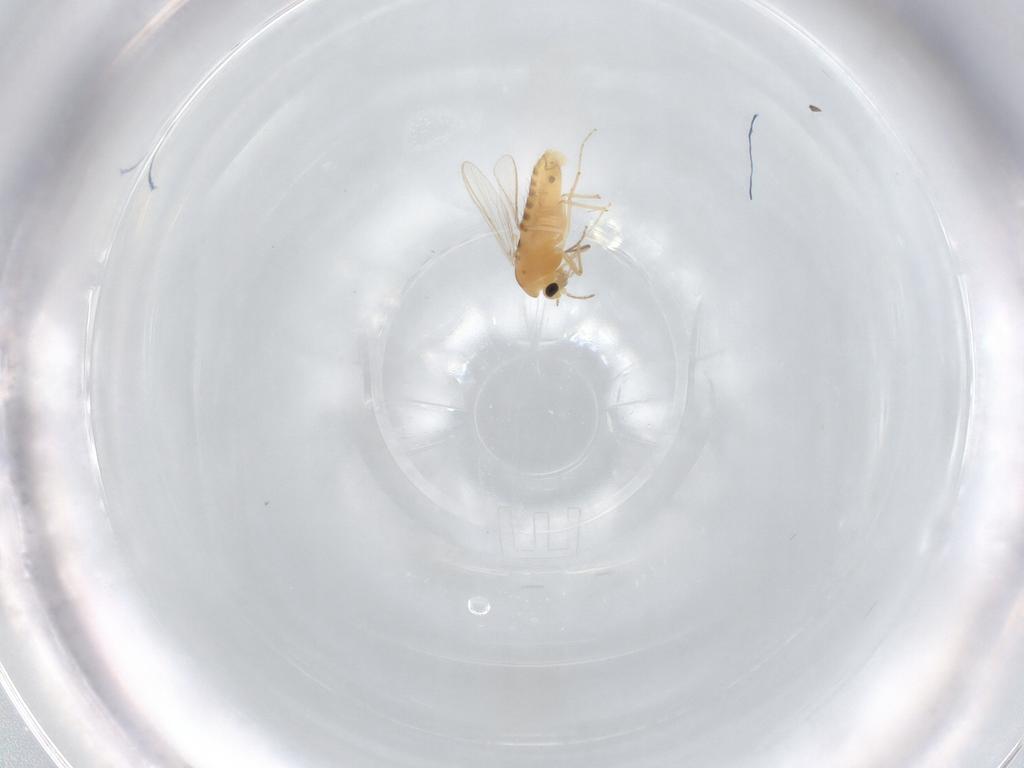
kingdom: Animalia
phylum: Arthropoda
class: Insecta
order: Diptera
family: Chironomidae
